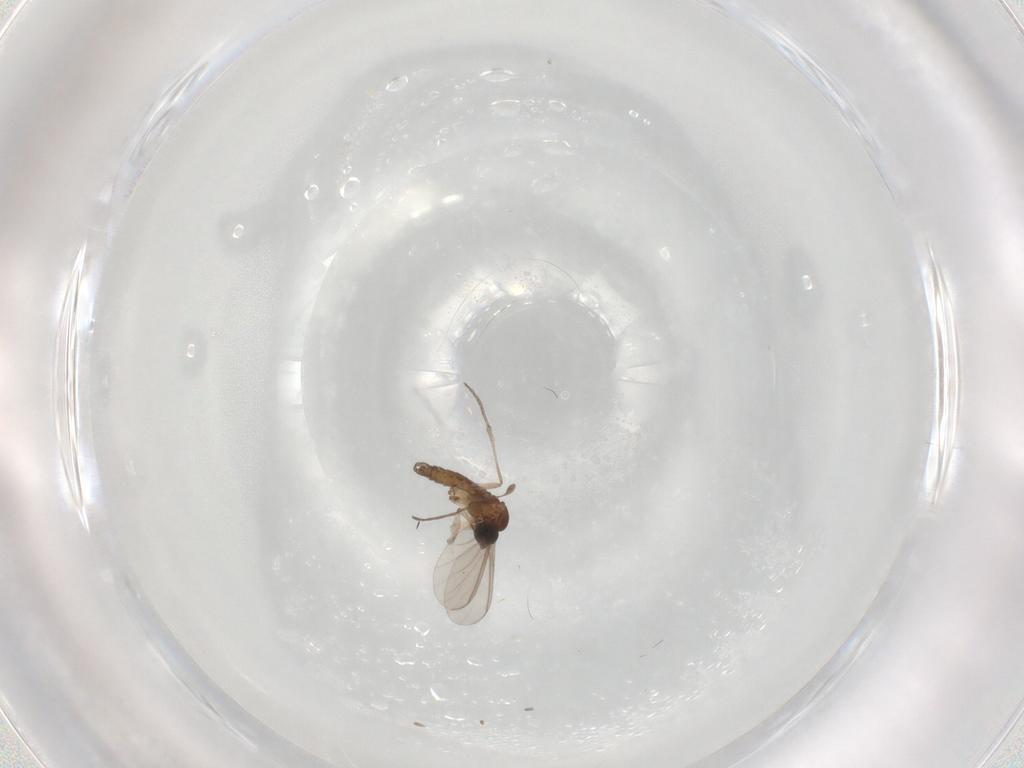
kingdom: Animalia
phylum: Arthropoda
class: Insecta
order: Diptera
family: Sciaridae
